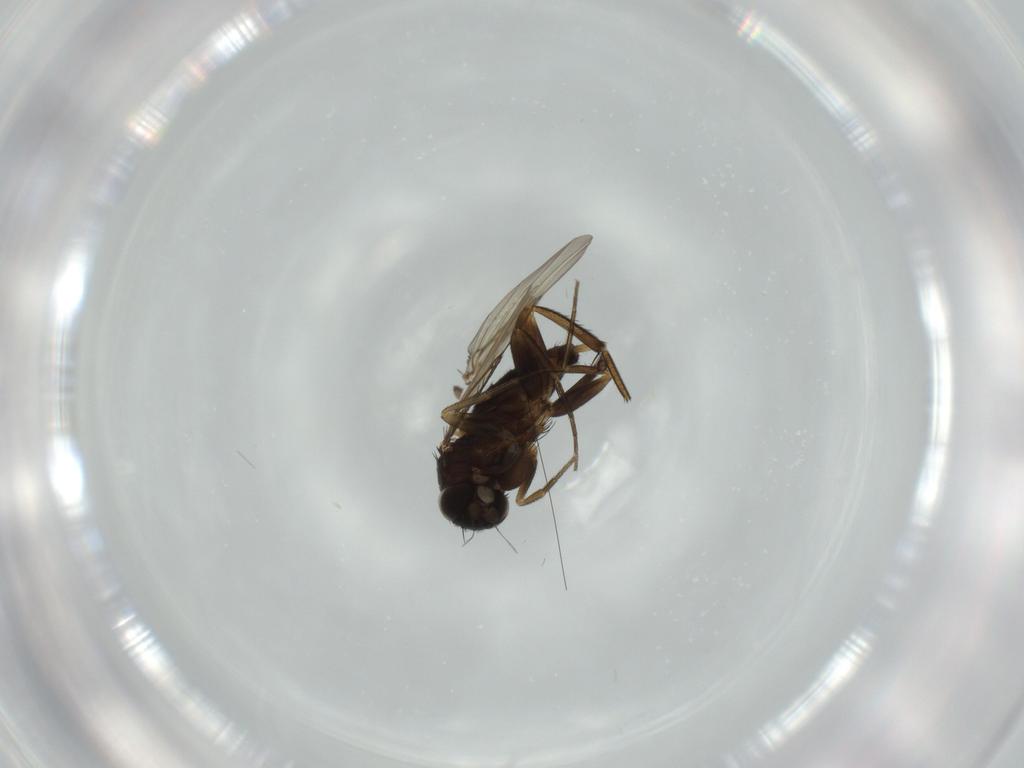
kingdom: Animalia
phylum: Arthropoda
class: Insecta
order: Diptera
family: Phoridae
